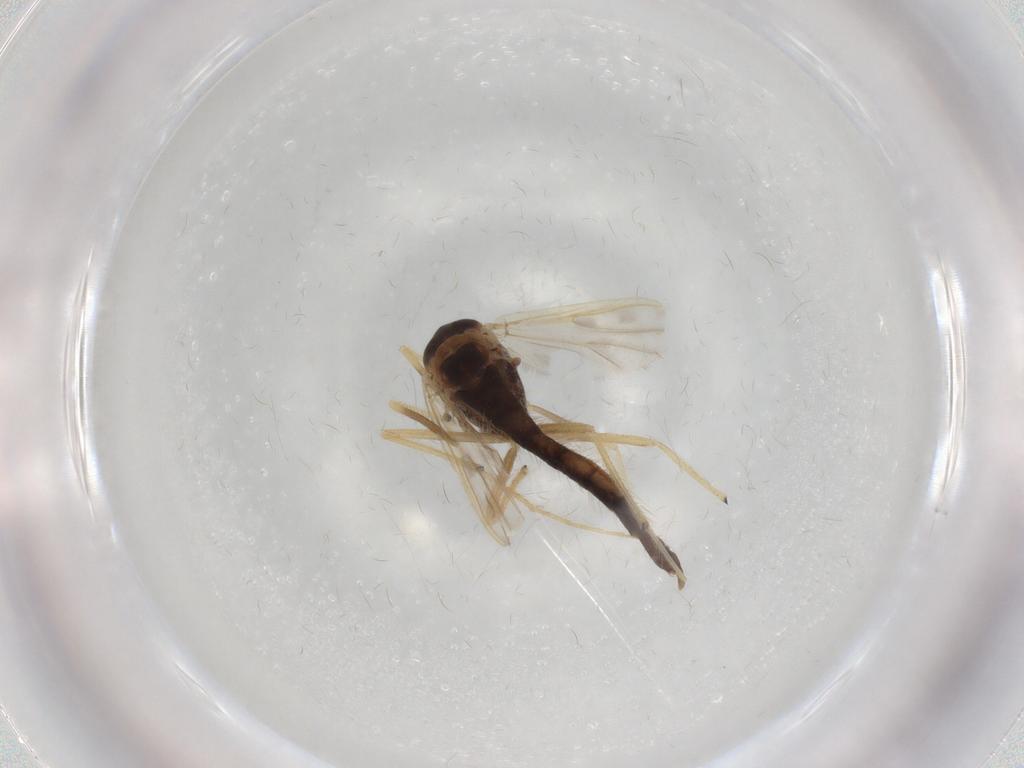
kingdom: Animalia
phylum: Arthropoda
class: Insecta
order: Diptera
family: Chironomidae
